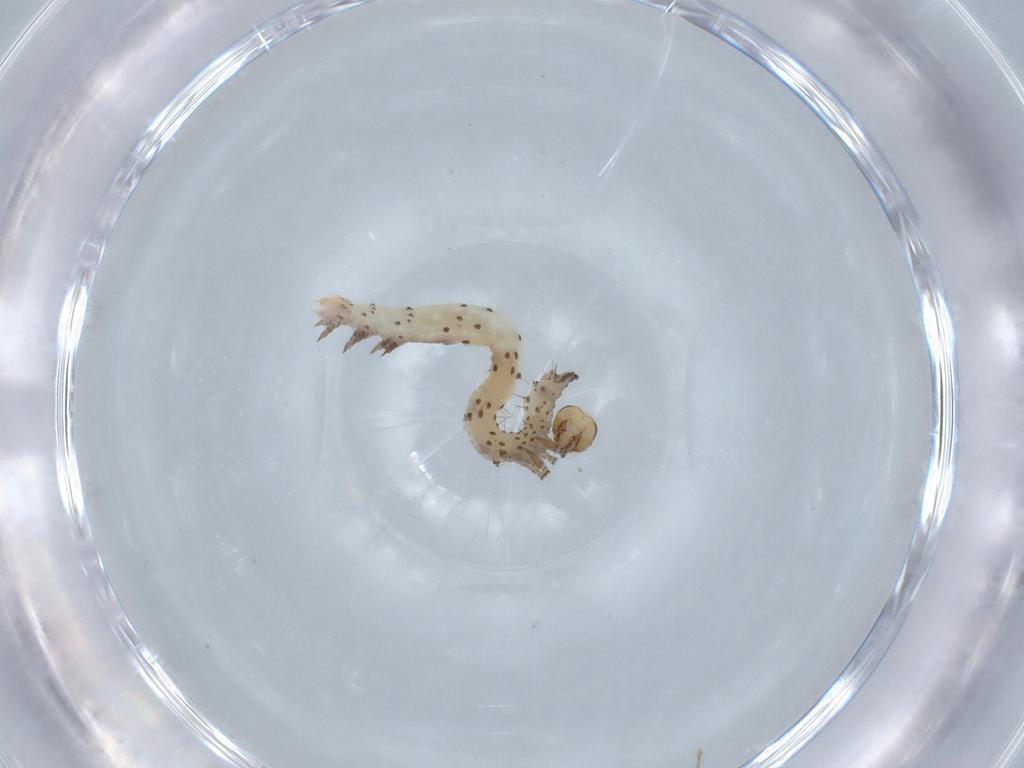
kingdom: Animalia
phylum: Arthropoda
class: Insecta
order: Lepidoptera
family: Erebidae
